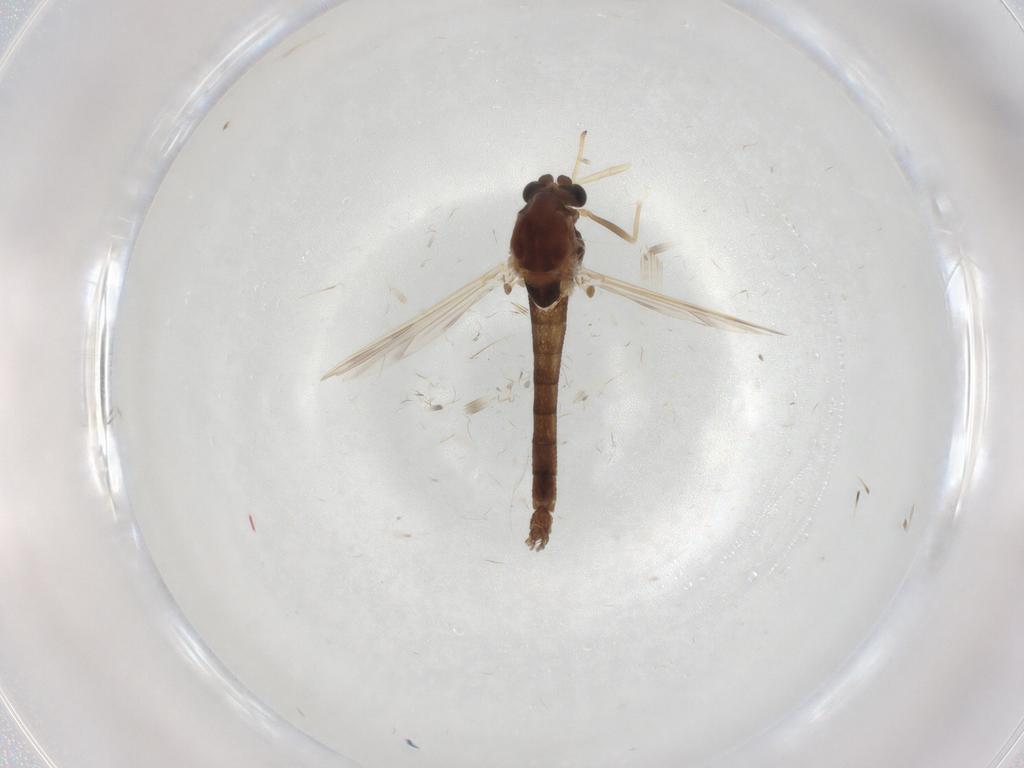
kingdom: Animalia
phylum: Arthropoda
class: Insecta
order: Diptera
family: Chironomidae
